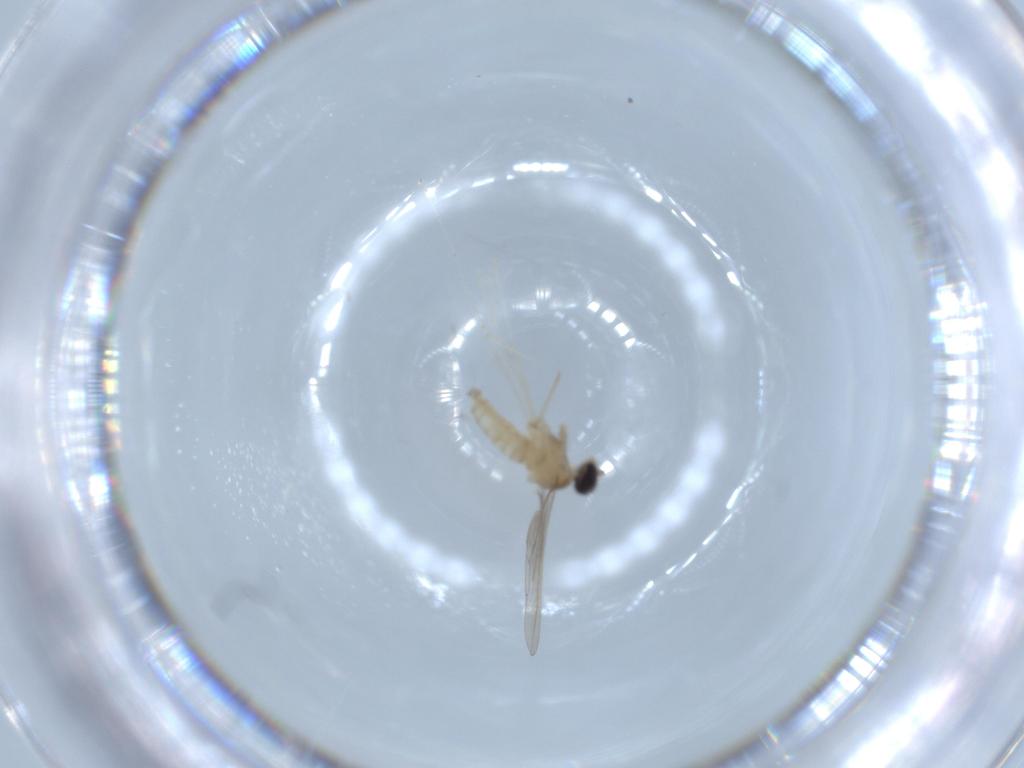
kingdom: Animalia
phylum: Arthropoda
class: Insecta
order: Diptera
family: Cecidomyiidae
